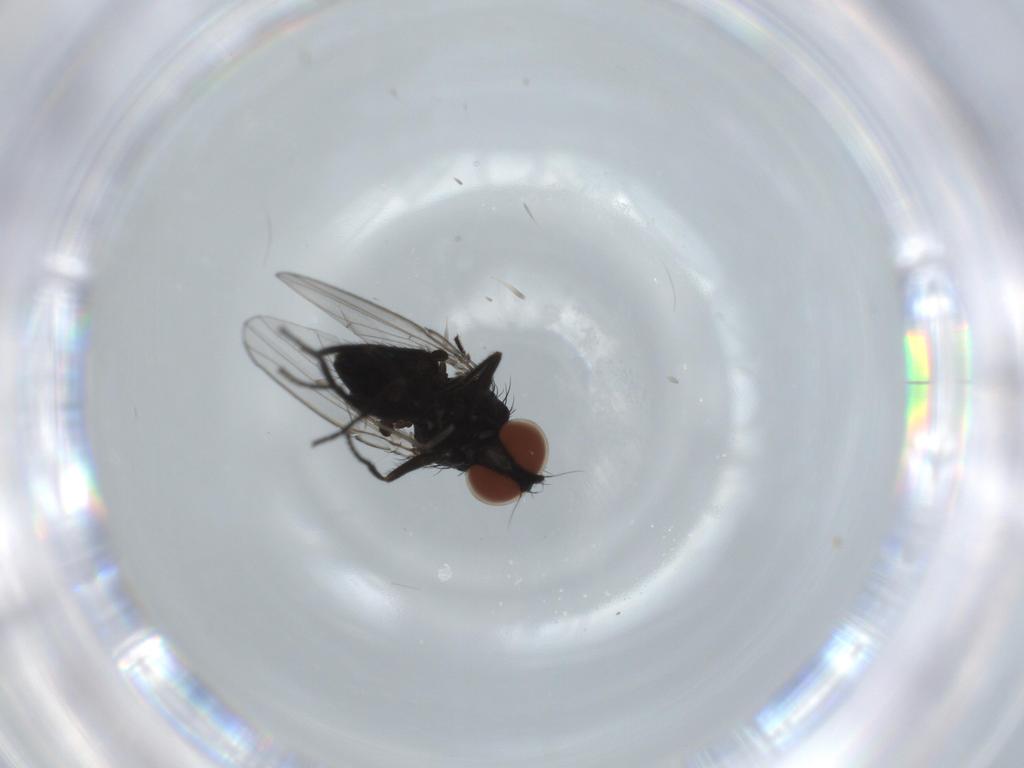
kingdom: Animalia
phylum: Arthropoda
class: Insecta
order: Diptera
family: Milichiidae
